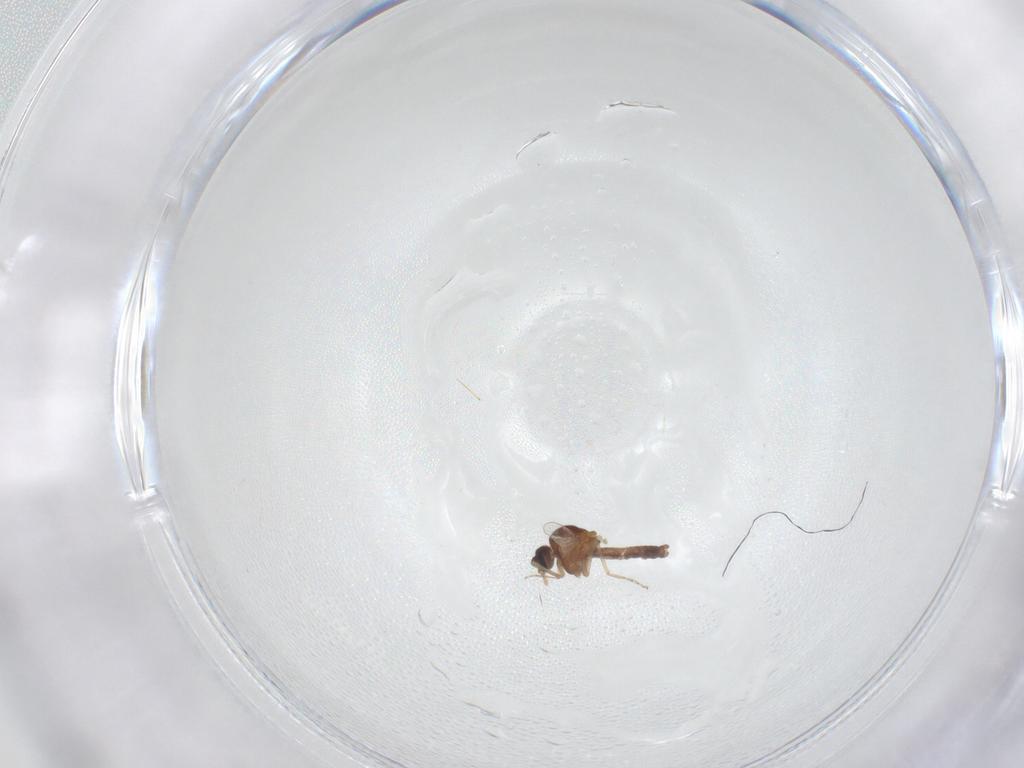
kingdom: Animalia
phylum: Arthropoda
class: Insecta
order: Diptera
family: Ceratopogonidae
